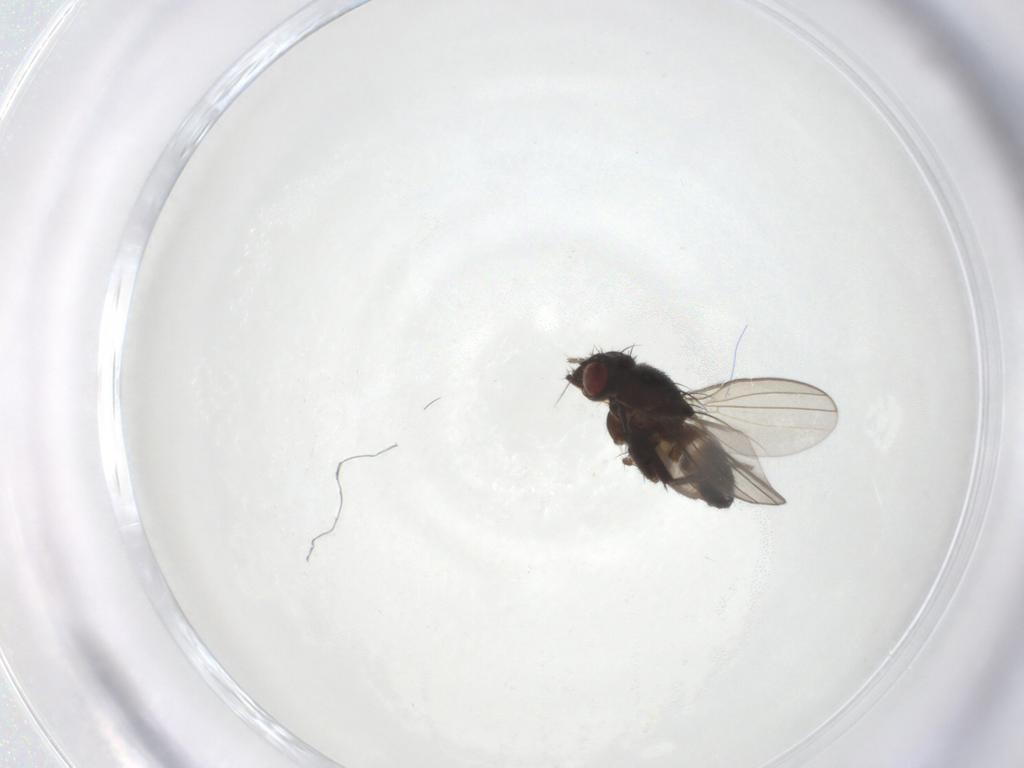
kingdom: Animalia
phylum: Arthropoda
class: Insecta
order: Diptera
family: Milichiidae
